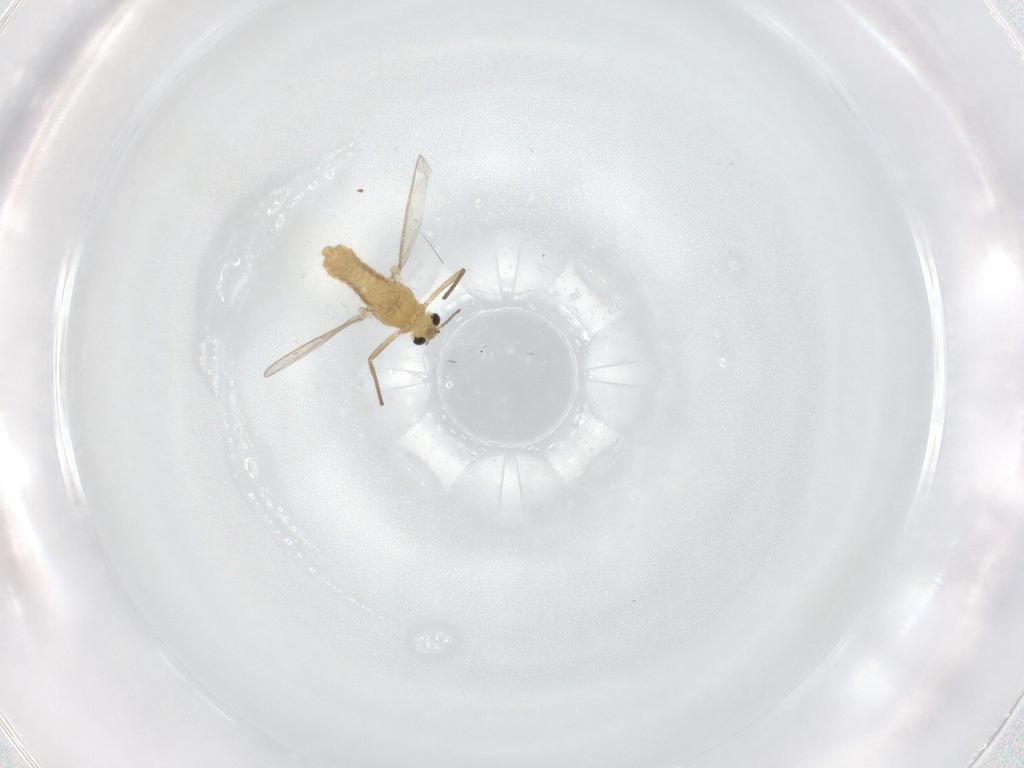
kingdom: Animalia
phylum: Arthropoda
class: Insecta
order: Diptera
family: Chironomidae
